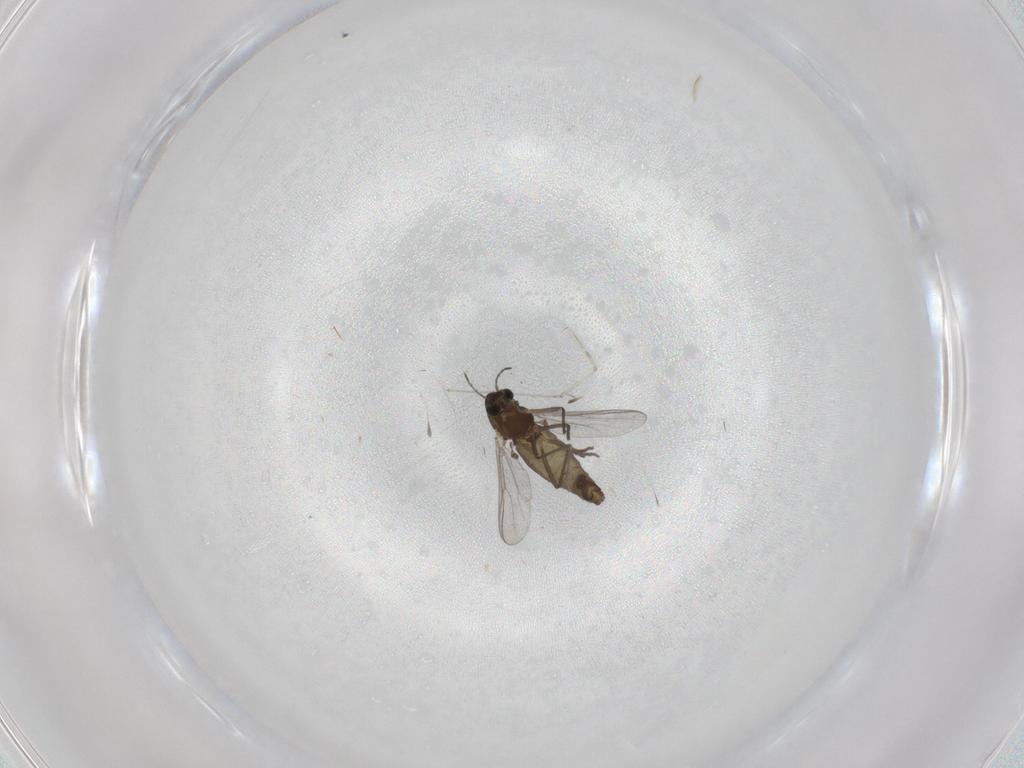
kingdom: Animalia
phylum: Arthropoda
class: Insecta
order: Diptera
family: Chironomidae
